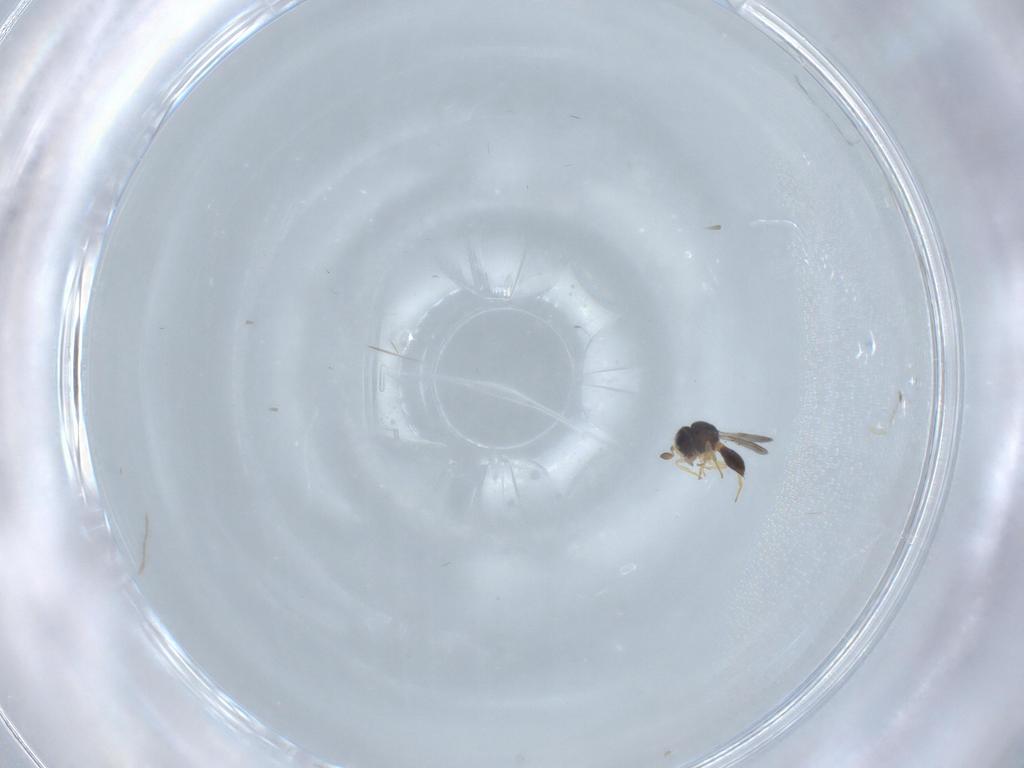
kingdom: Animalia
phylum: Arthropoda
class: Insecta
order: Hymenoptera
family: Scelionidae
